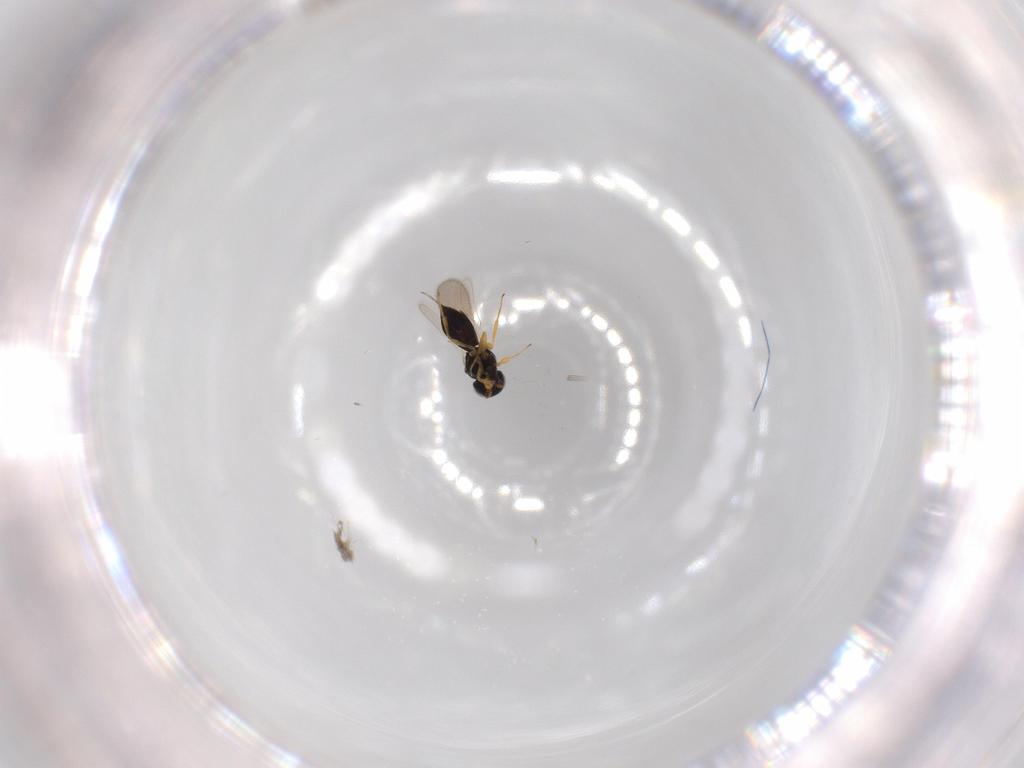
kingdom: Animalia
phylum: Arthropoda
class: Insecta
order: Hymenoptera
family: Scelionidae
